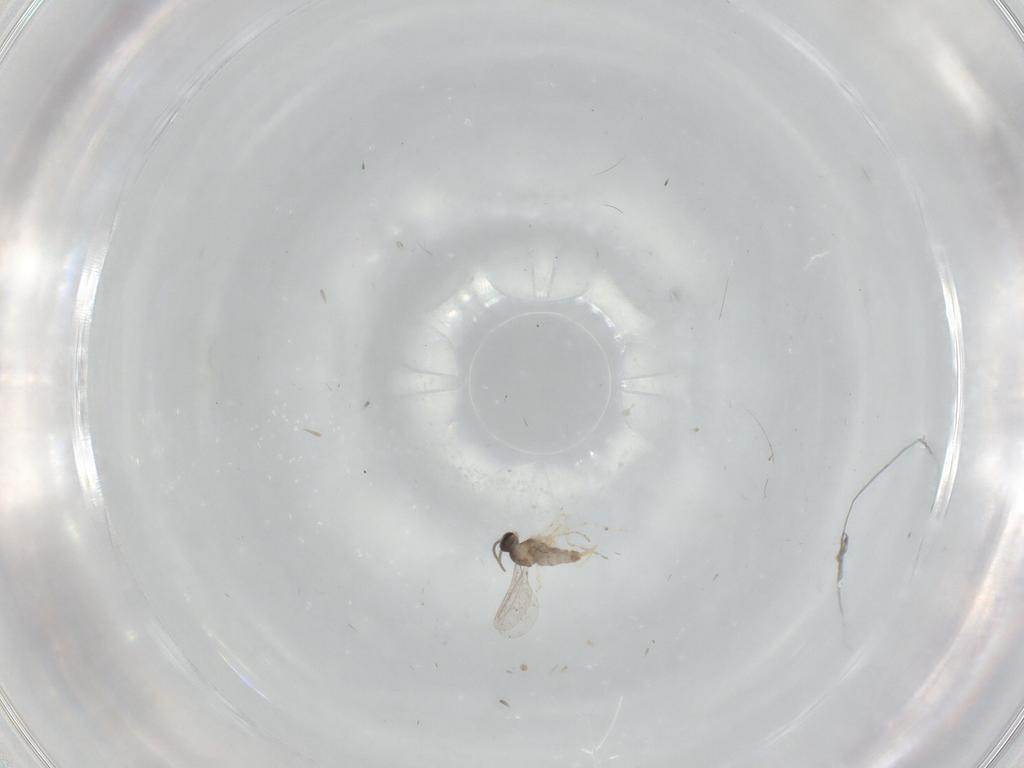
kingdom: Animalia
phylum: Arthropoda
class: Insecta
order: Diptera
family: Cecidomyiidae
